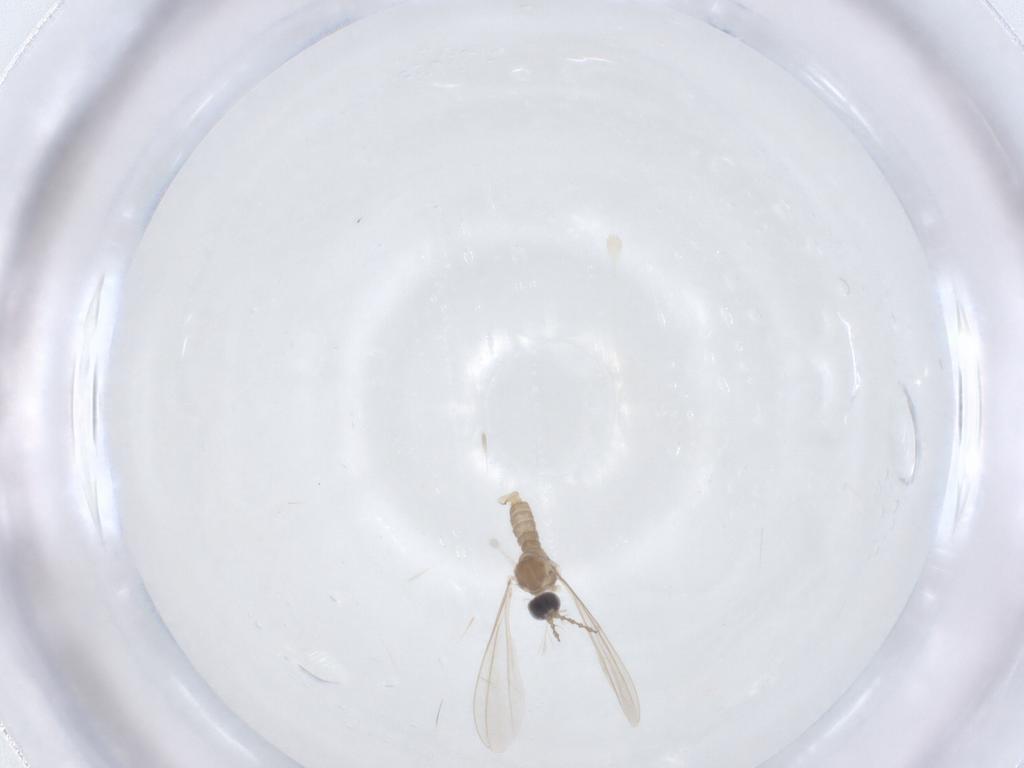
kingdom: Animalia
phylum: Arthropoda
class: Insecta
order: Diptera
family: Cecidomyiidae
